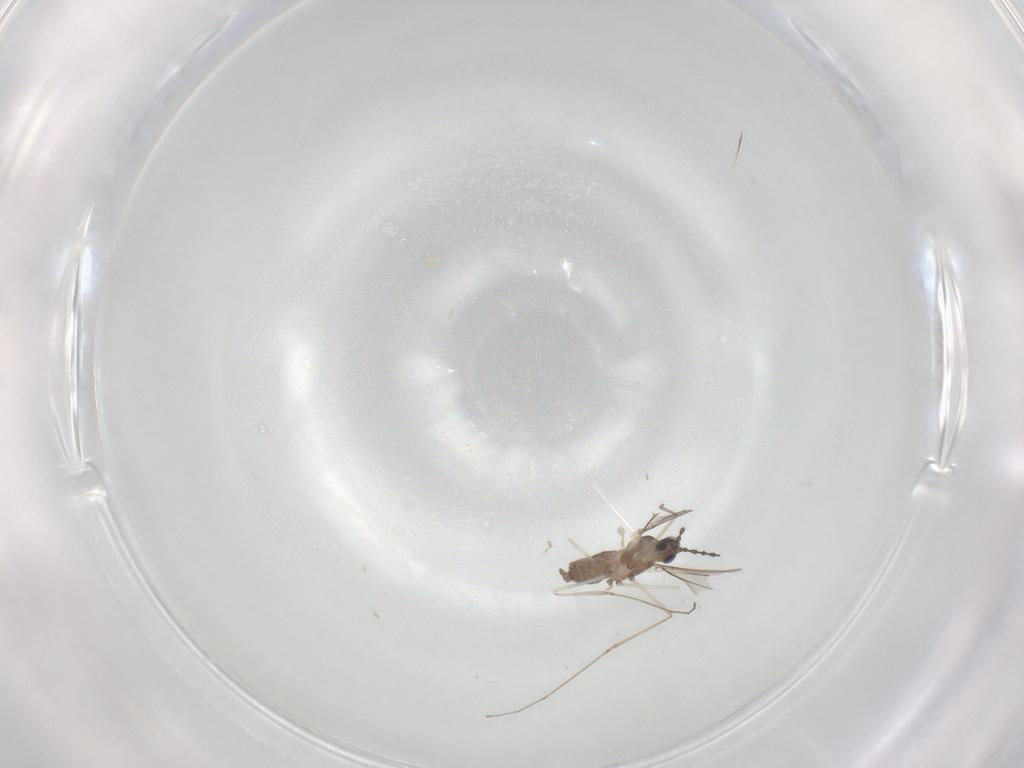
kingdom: Animalia
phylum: Arthropoda
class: Insecta
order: Diptera
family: Cecidomyiidae
